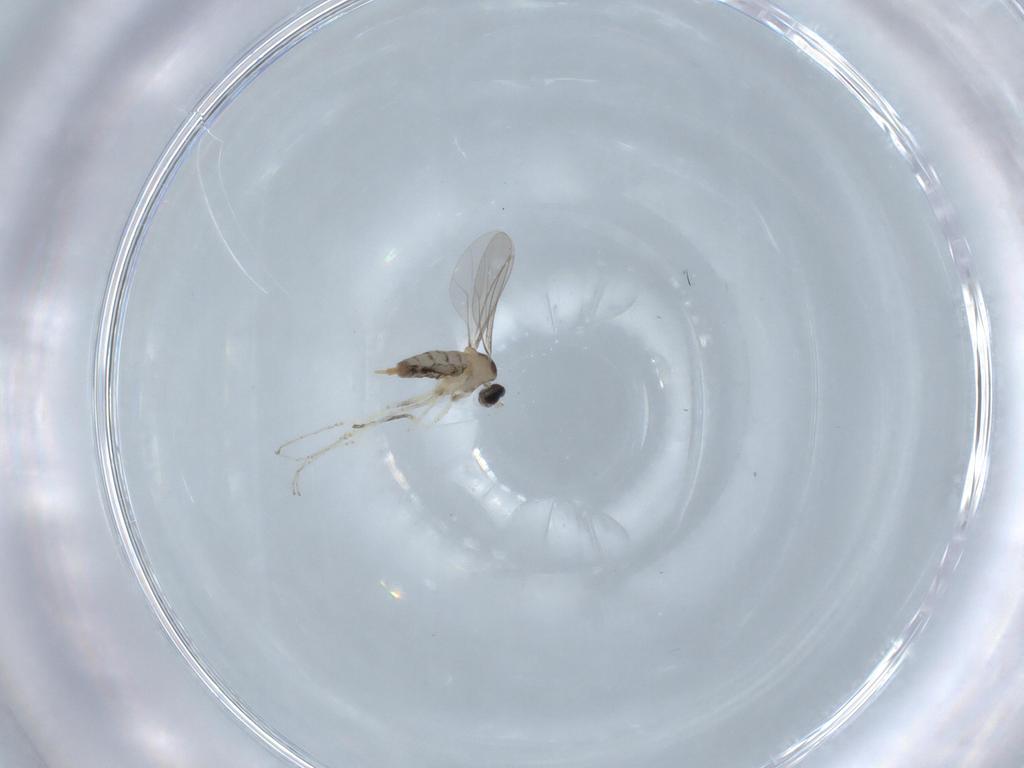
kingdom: Animalia
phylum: Arthropoda
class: Insecta
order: Diptera
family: Cecidomyiidae
